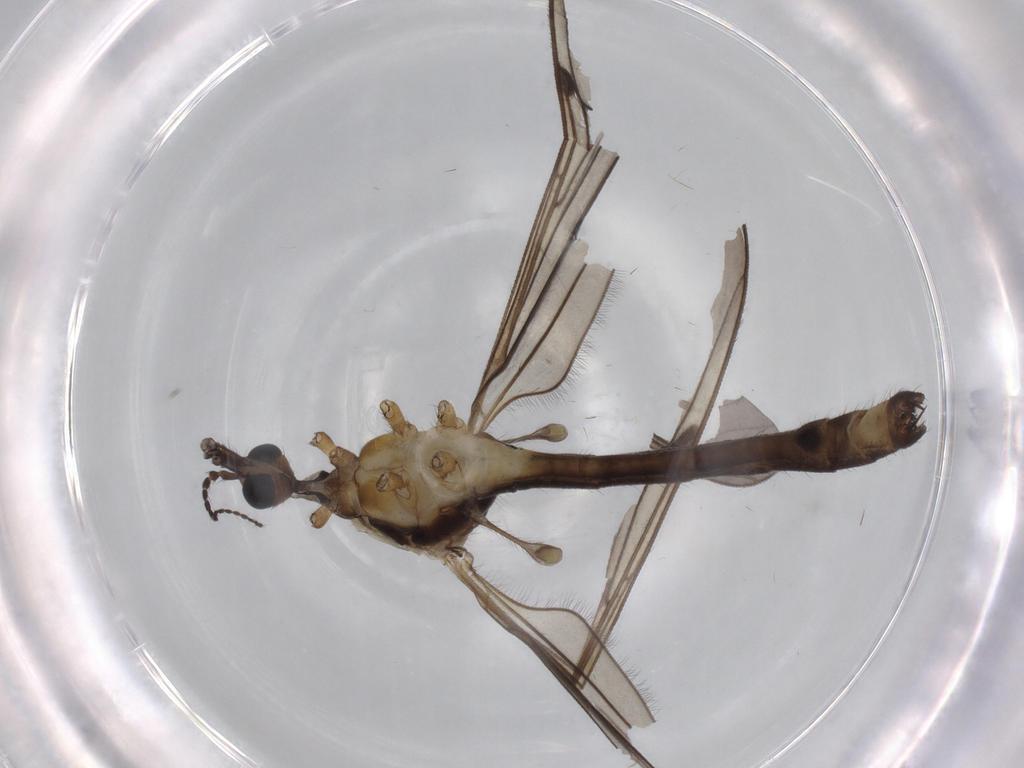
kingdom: Animalia
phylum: Arthropoda
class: Insecta
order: Diptera
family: Limoniidae
